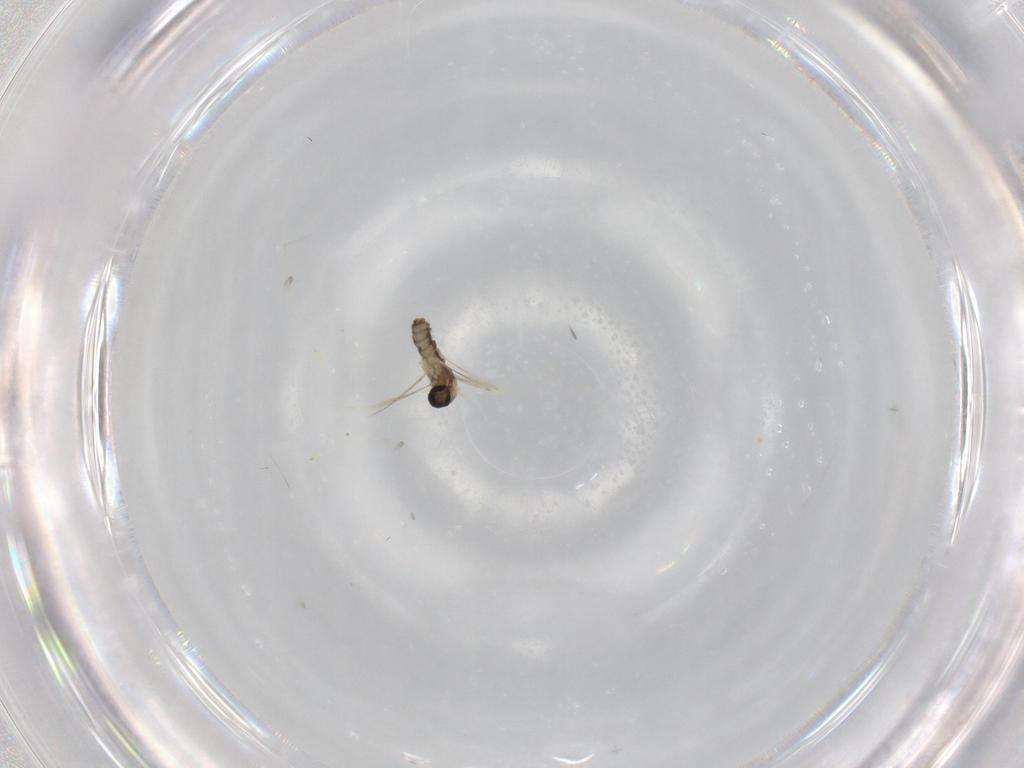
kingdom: Animalia
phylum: Arthropoda
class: Insecta
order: Diptera
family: Cecidomyiidae
